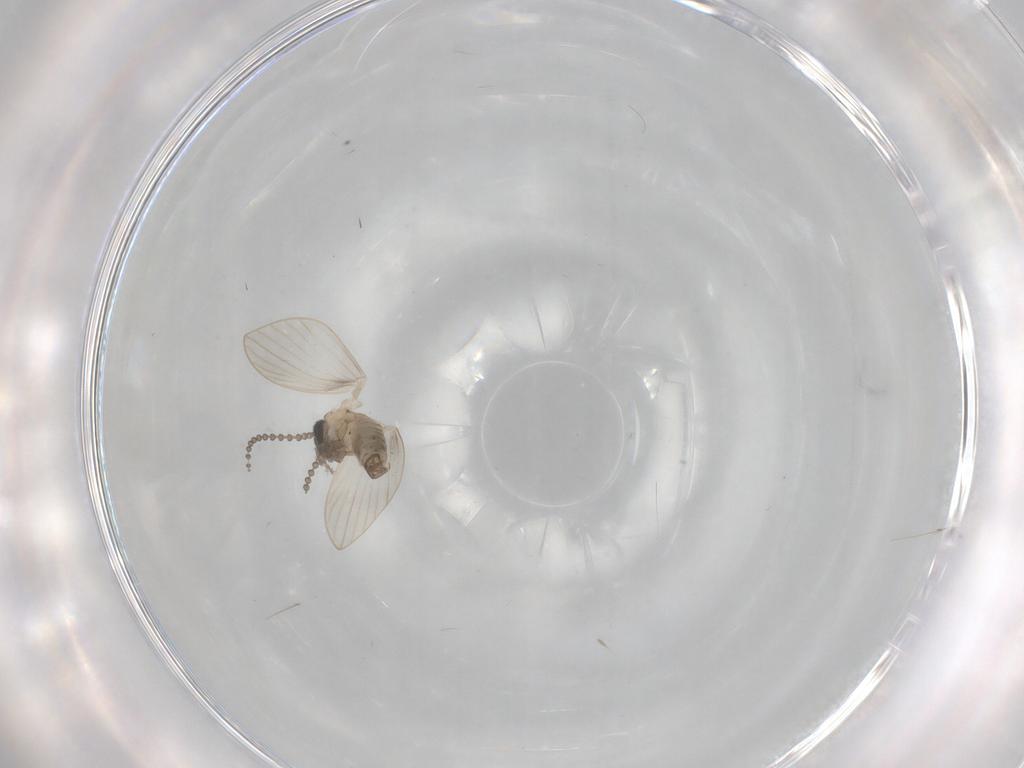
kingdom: Animalia
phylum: Arthropoda
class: Insecta
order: Diptera
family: Psychodidae
